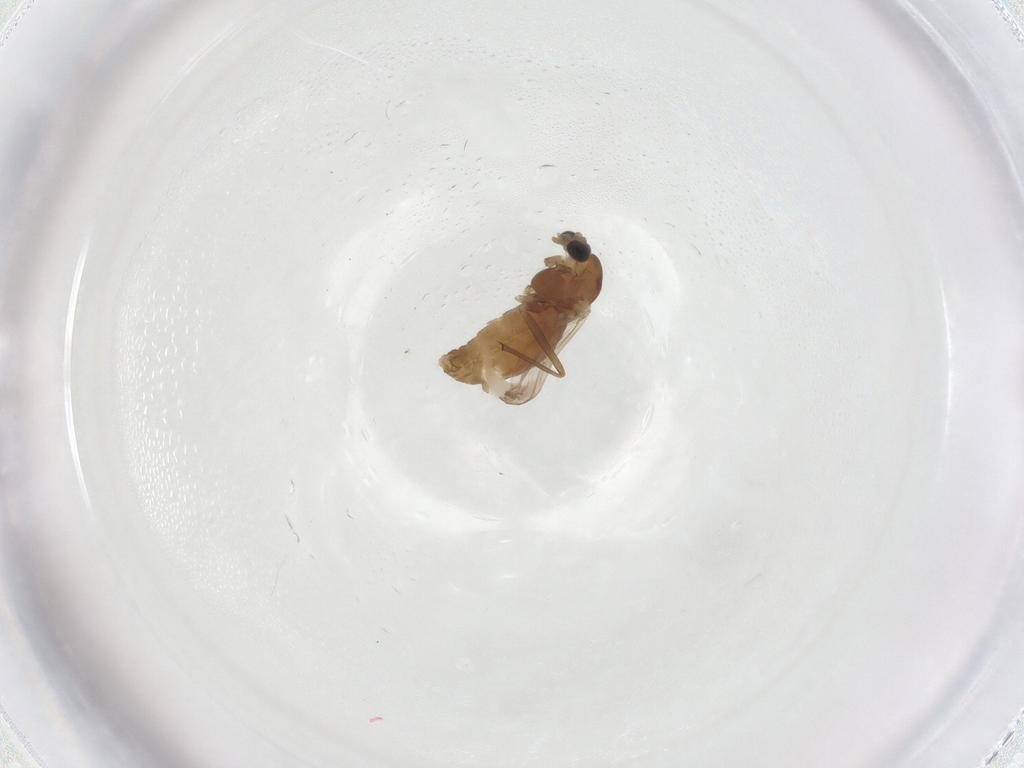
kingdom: Animalia
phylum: Arthropoda
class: Insecta
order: Diptera
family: Chironomidae
